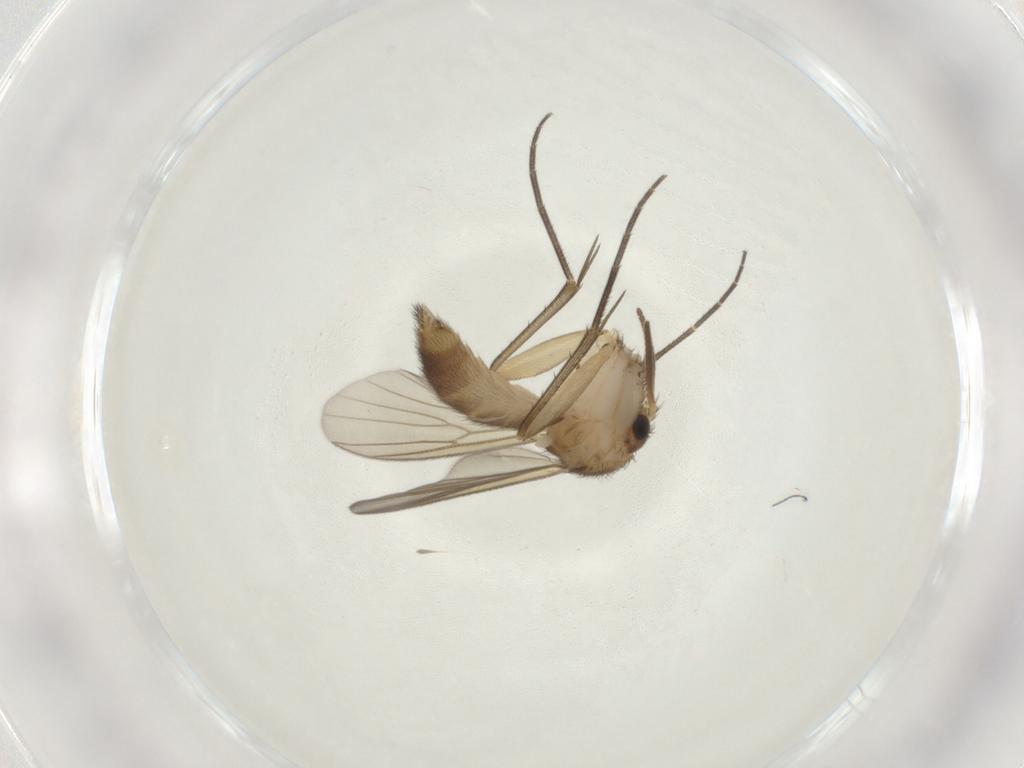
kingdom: Animalia
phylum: Arthropoda
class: Insecta
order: Diptera
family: Mycetophilidae
